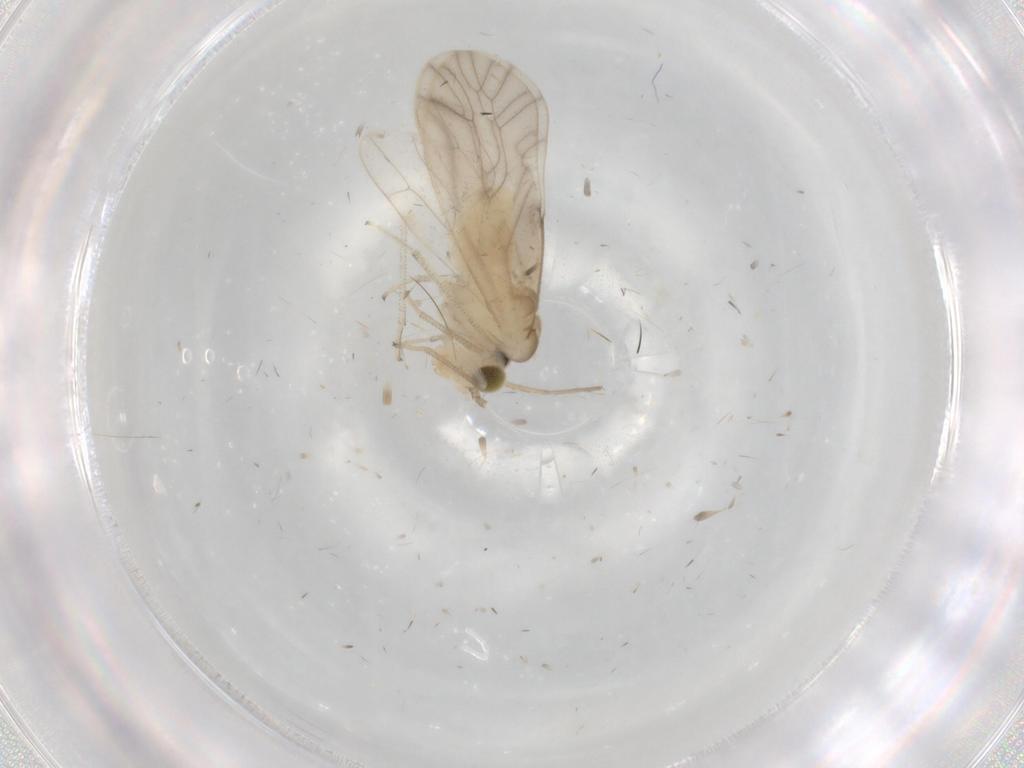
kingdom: Animalia
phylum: Arthropoda
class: Insecta
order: Psocodea
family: Caeciliusidae
